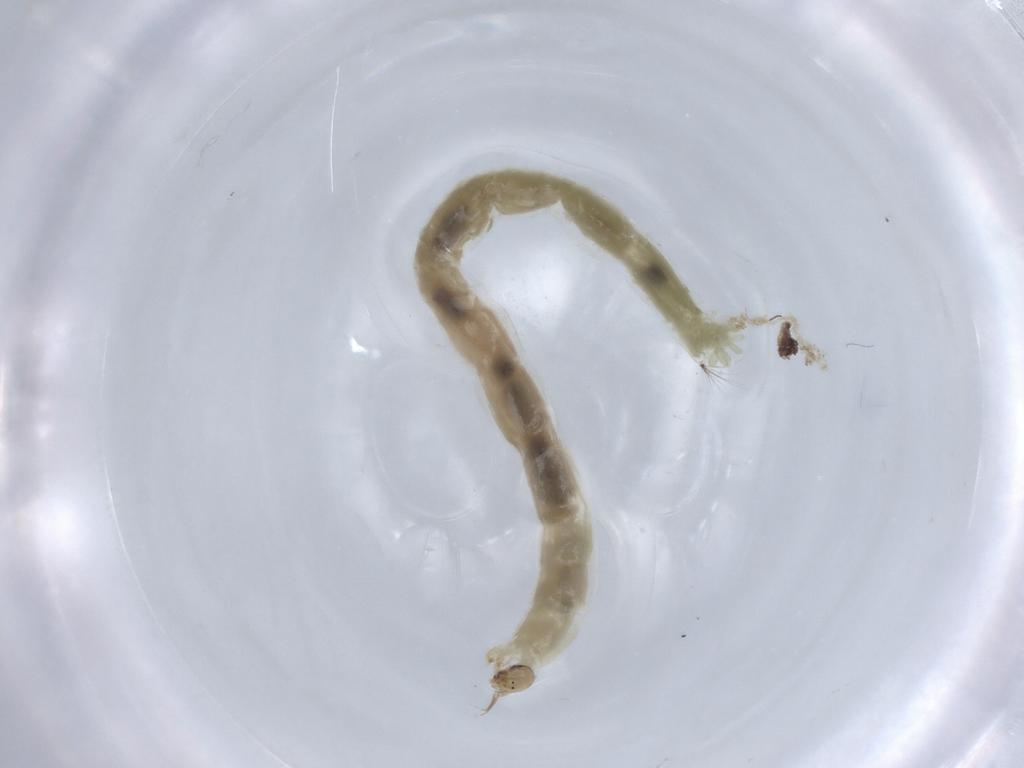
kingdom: Animalia
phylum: Arthropoda
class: Insecta
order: Diptera
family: Chironomidae
